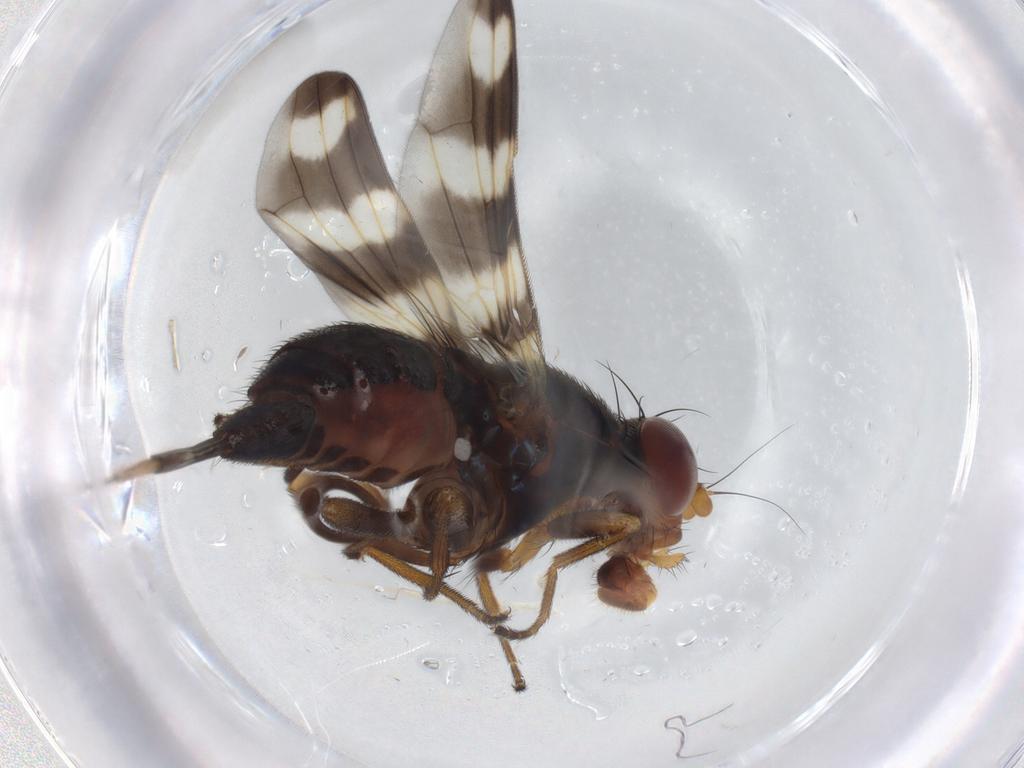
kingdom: Animalia
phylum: Arthropoda
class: Insecta
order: Diptera
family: Ulidiidae
